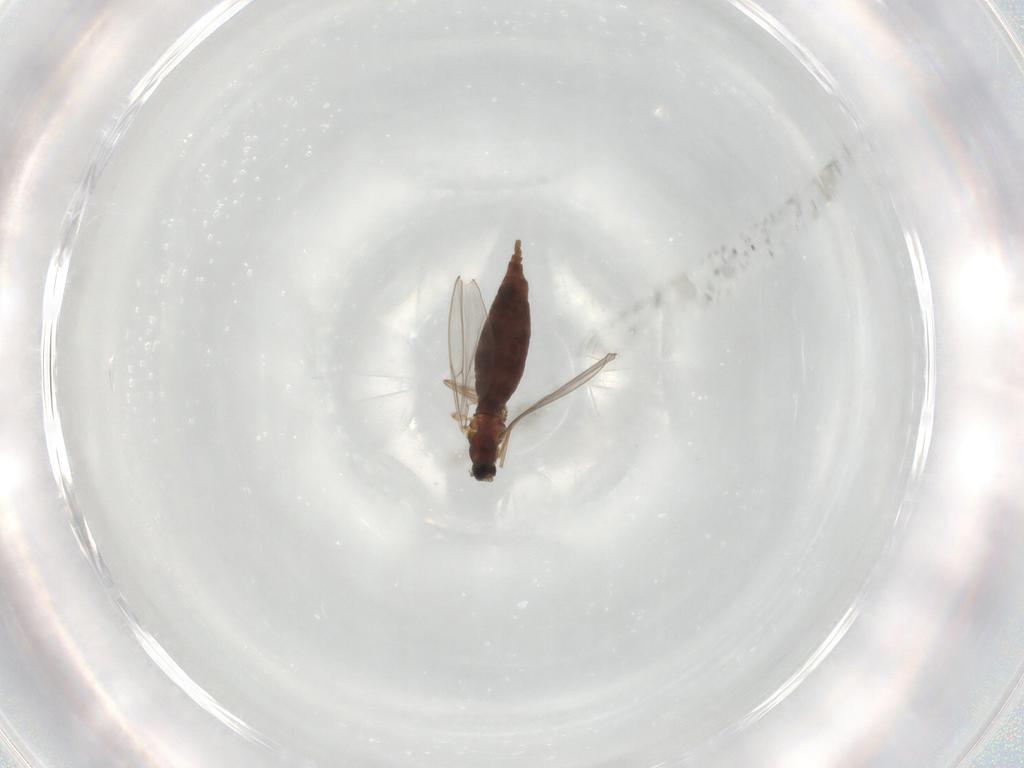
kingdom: Animalia
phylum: Arthropoda
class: Insecta
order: Diptera
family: Cecidomyiidae
